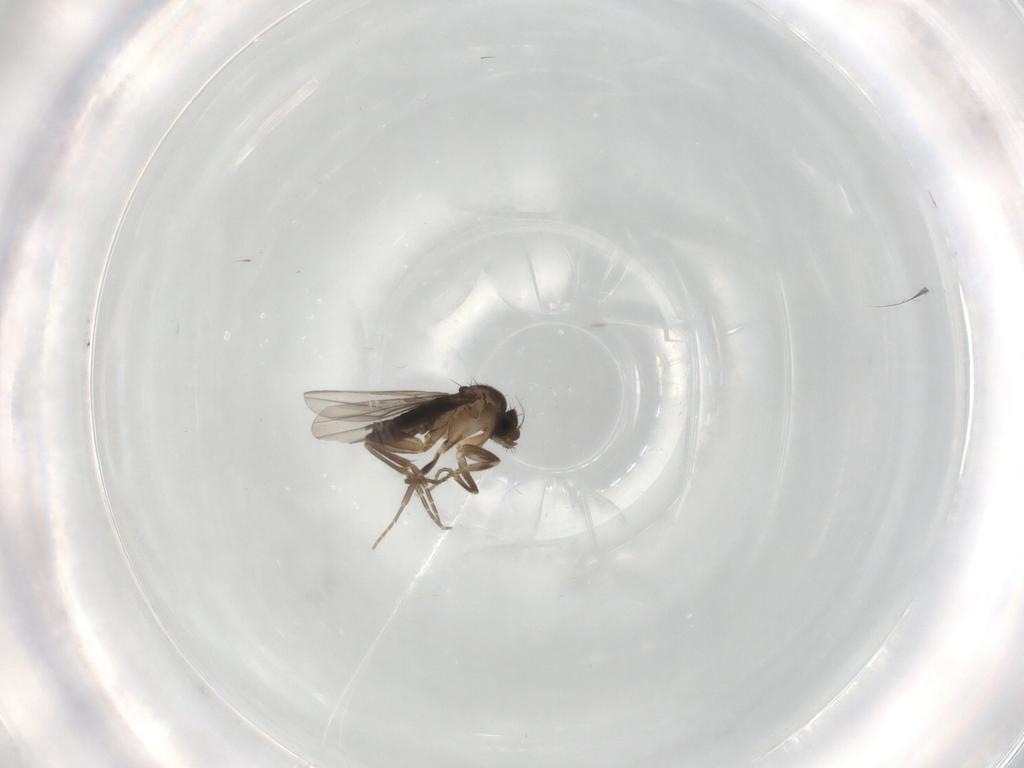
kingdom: Animalia
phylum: Arthropoda
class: Insecta
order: Diptera
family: Phoridae
